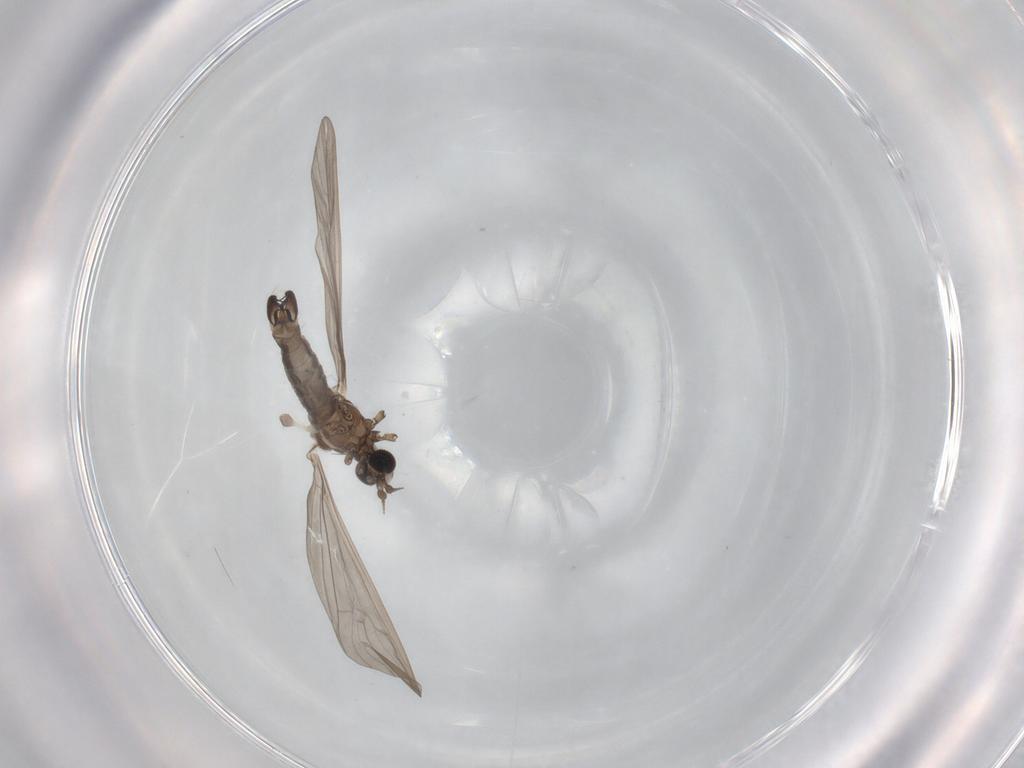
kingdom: Animalia
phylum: Arthropoda
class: Insecta
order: Diptera
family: Limoniidae
